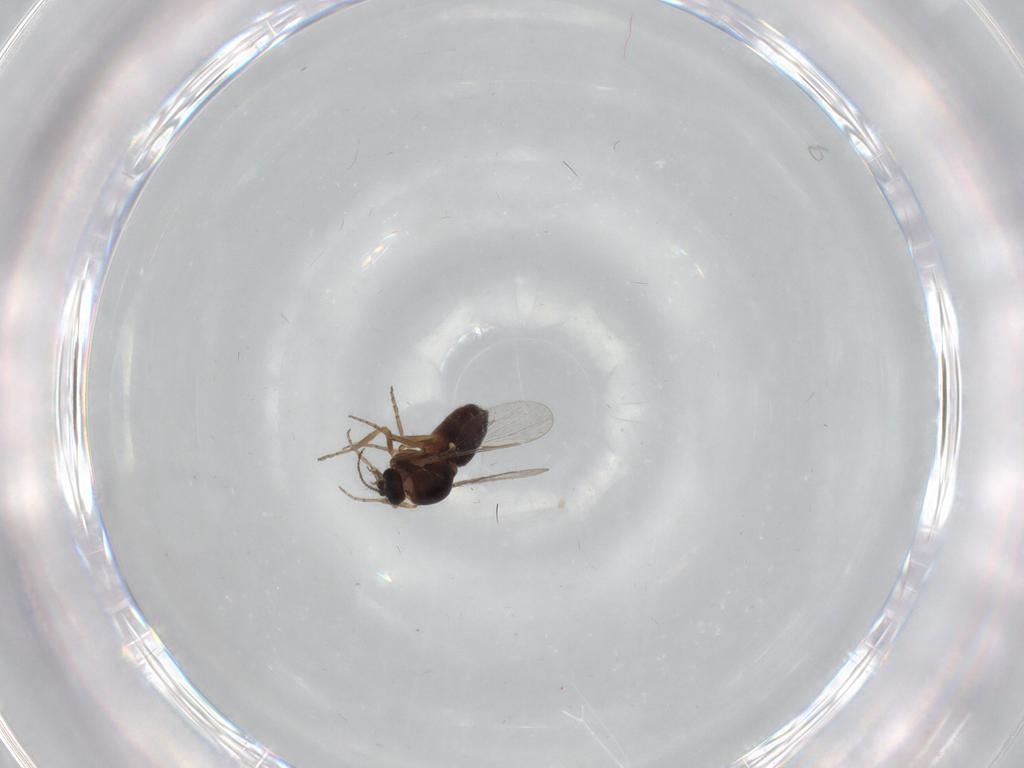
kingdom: Animalia
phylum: Arthropoda
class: Insecta
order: Diptera
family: Ceratopogonidae
